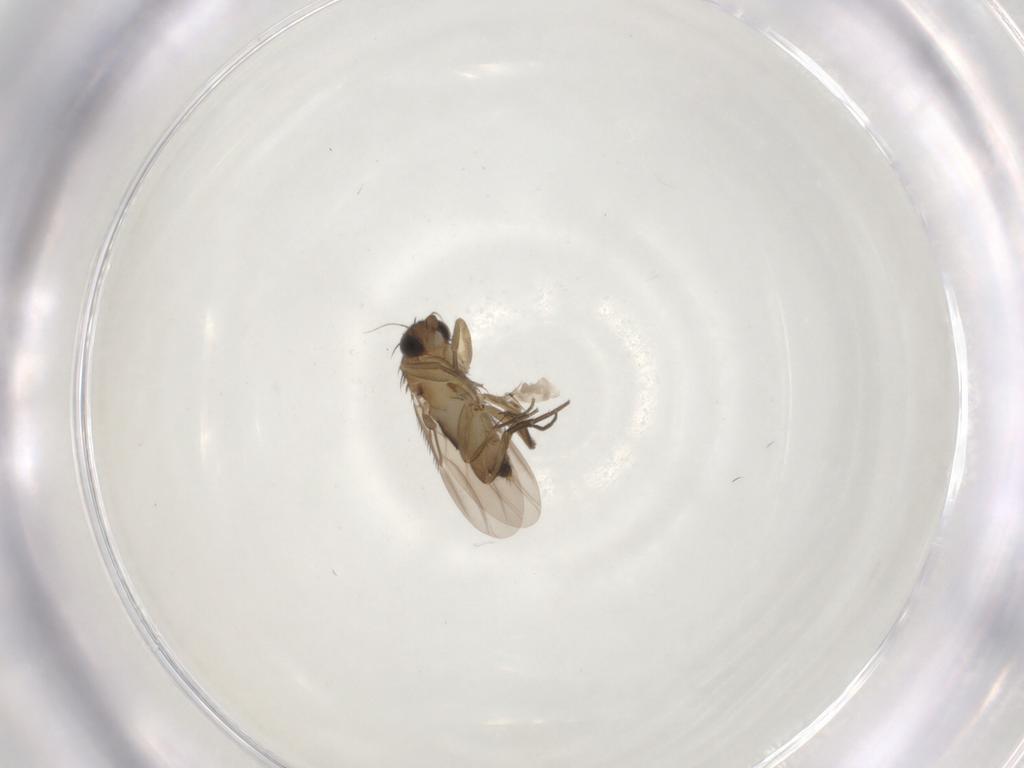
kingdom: Animalia
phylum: Arthropoda
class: Insecta
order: Diptera
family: Phoridae
